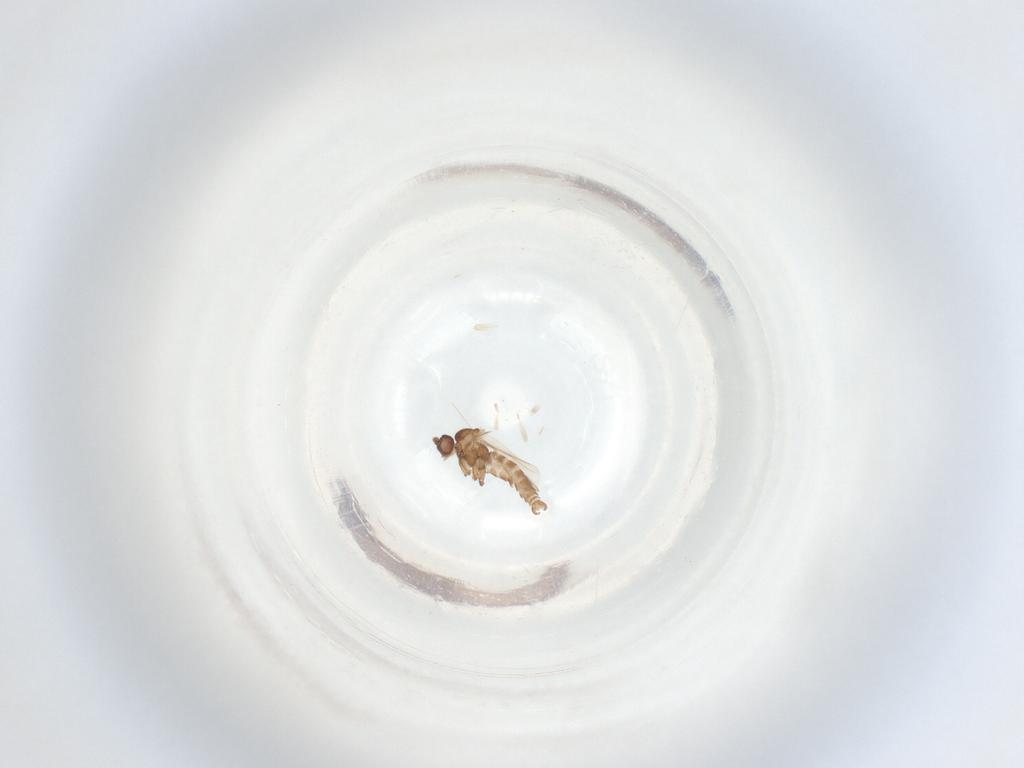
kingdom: Animalia
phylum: Arthropoda
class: Insecta
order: Diptera
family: Sciaridae
